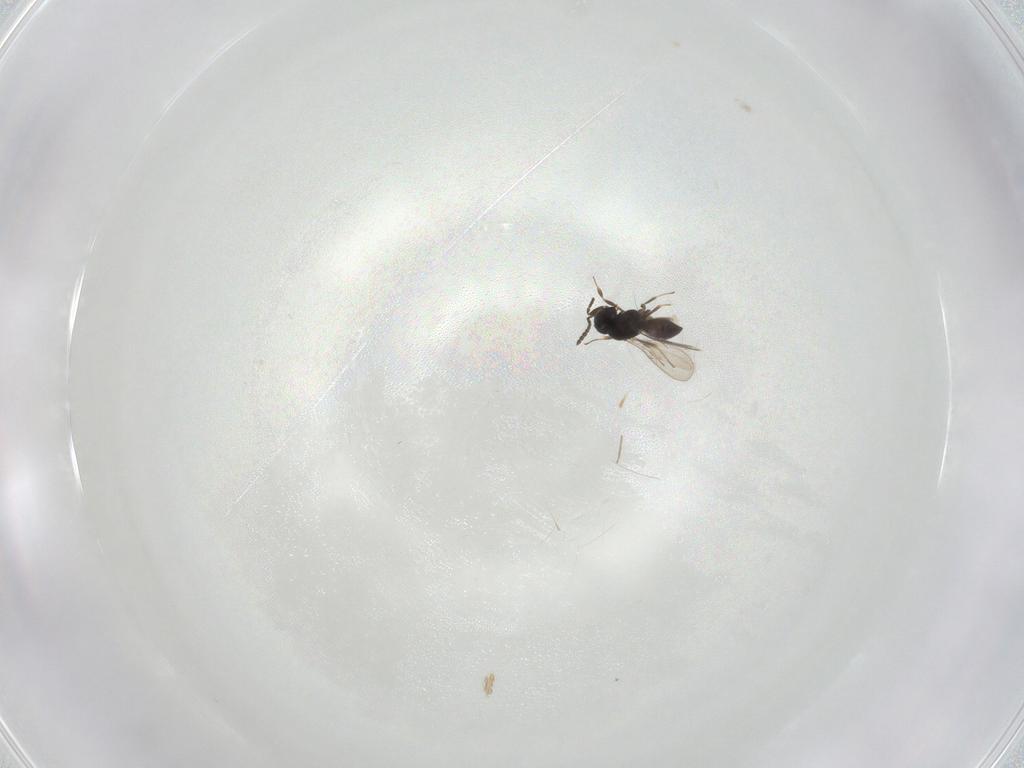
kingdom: Animalia
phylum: Arthropoda
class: Insecta
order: Hymenoptera
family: Scelionidae
